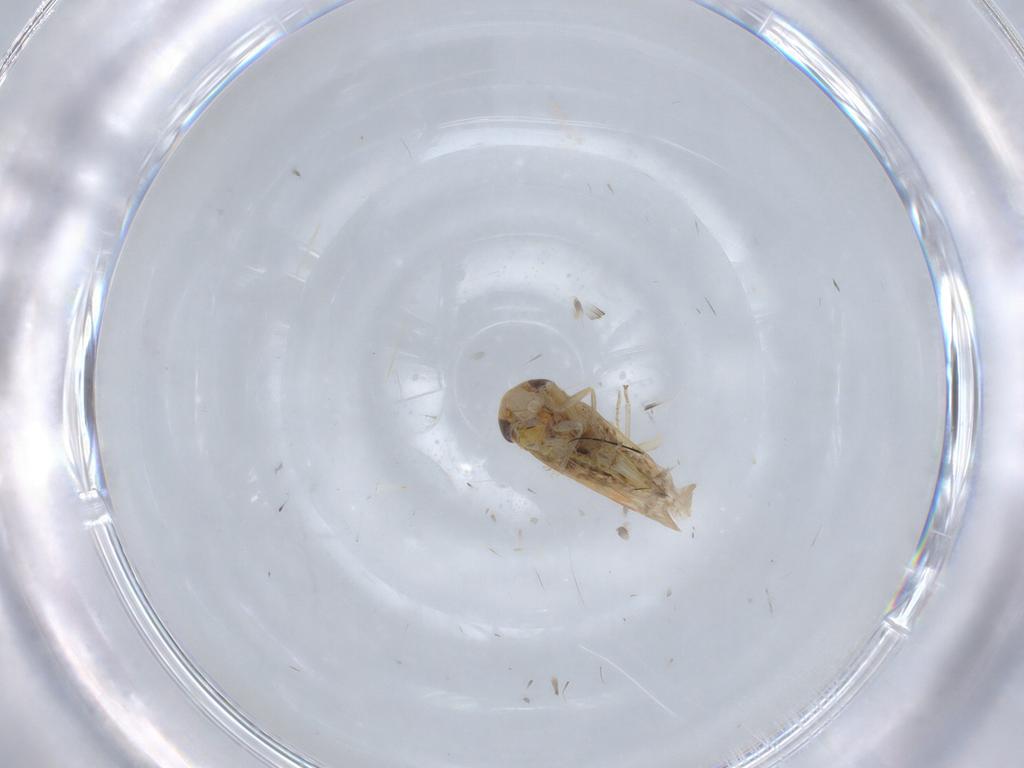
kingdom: Animalia
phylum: Arthropoda
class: Insecta
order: Hemiptera
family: Cicadellidae
